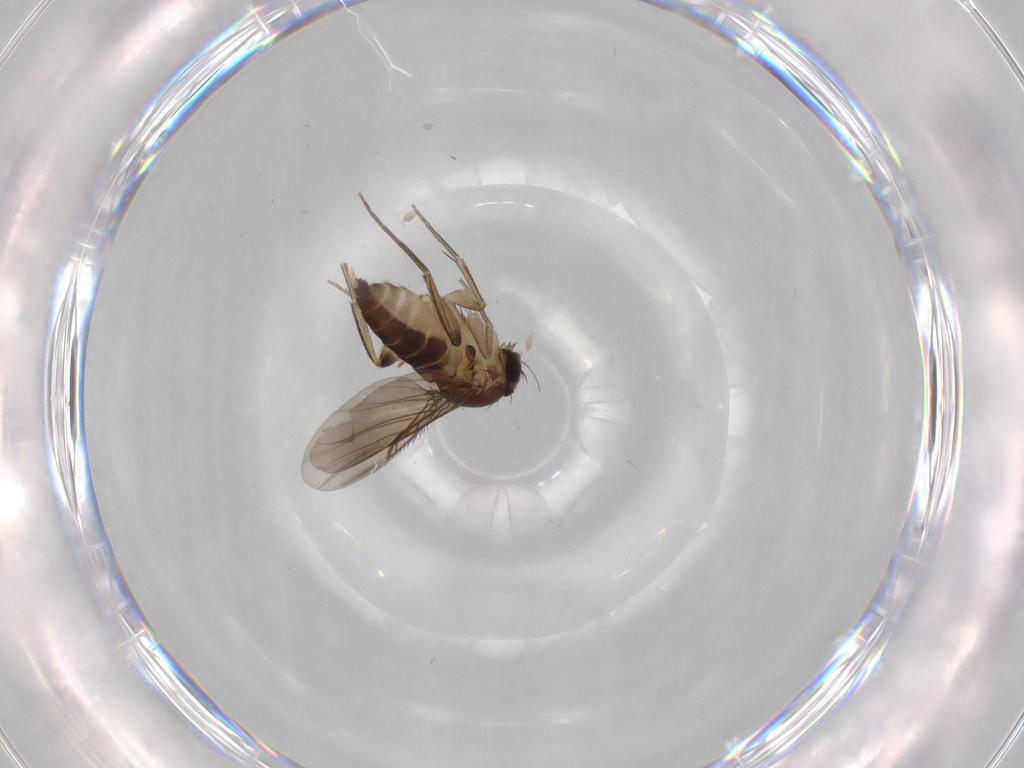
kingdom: Animalia
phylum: Arthropoda
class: Insecta
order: Diptera
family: Phoridae
